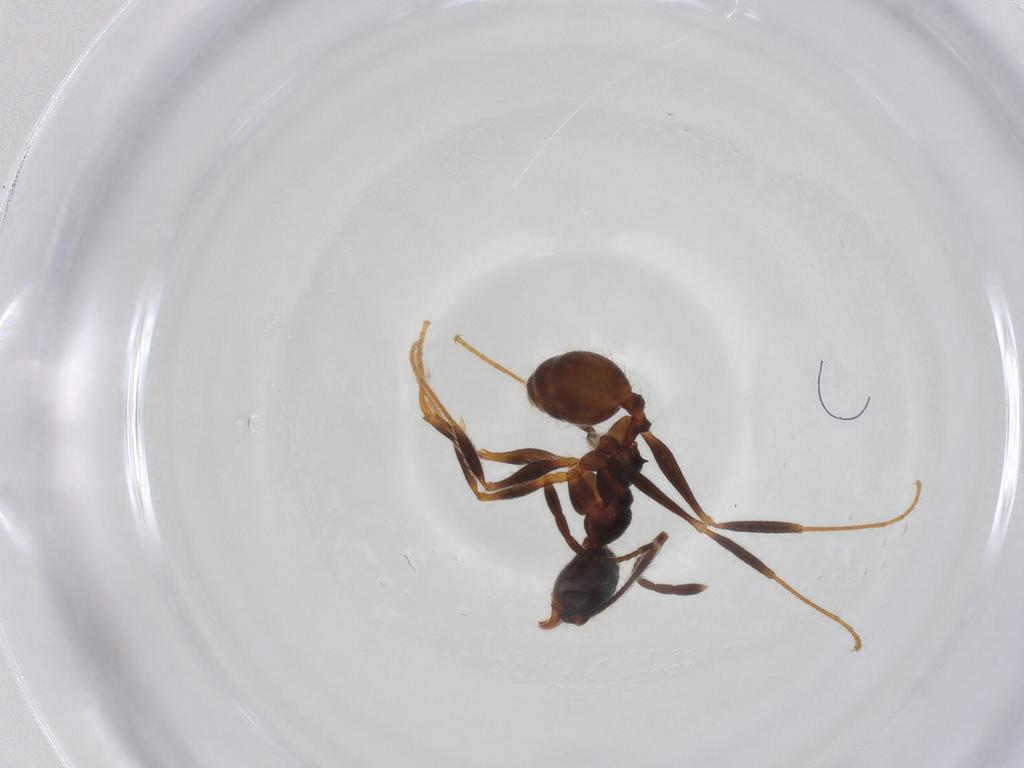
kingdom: Animalia
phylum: Arthropoda
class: Insecta
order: Hymenoptera
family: Formicidae
